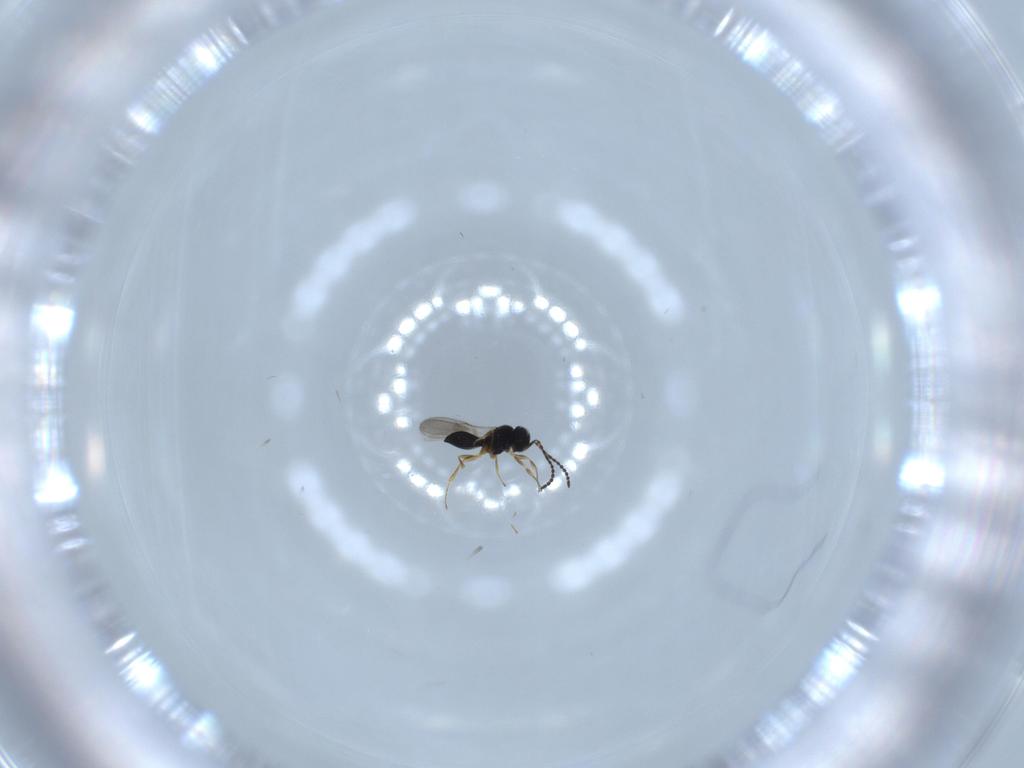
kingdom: Animalia
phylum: Arthropoda
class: Insecta
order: Hymenoptera
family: Scelionidae
